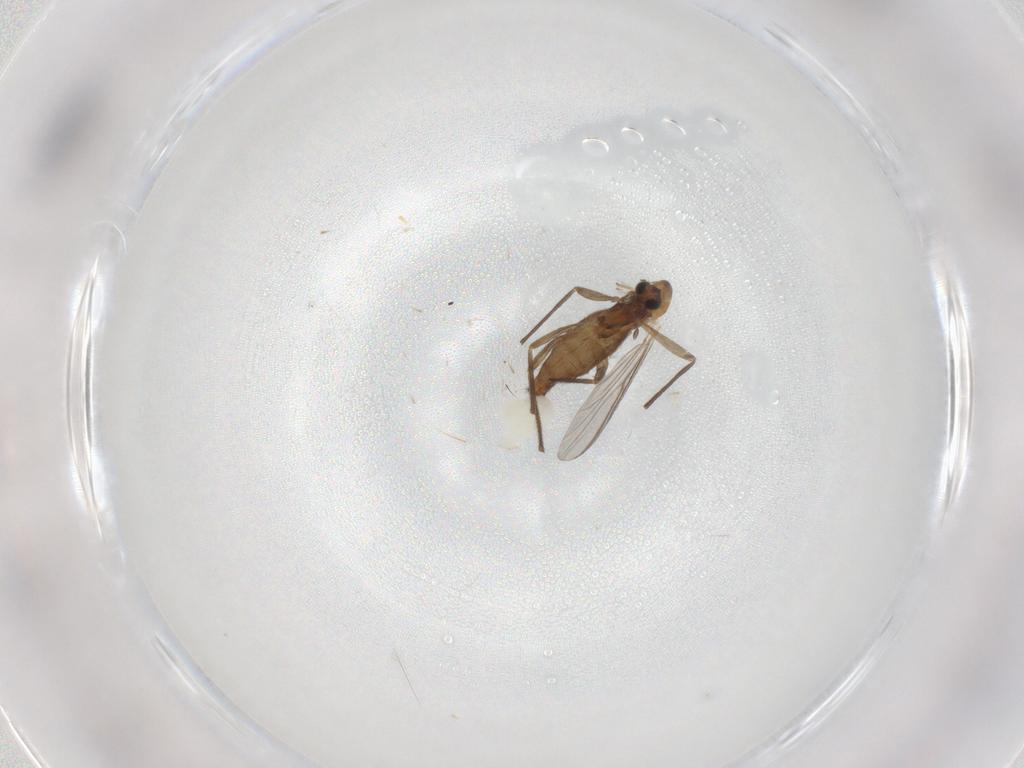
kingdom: Animalia
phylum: Arthropoda
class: Insecta
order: Diptera
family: Chironomidae
